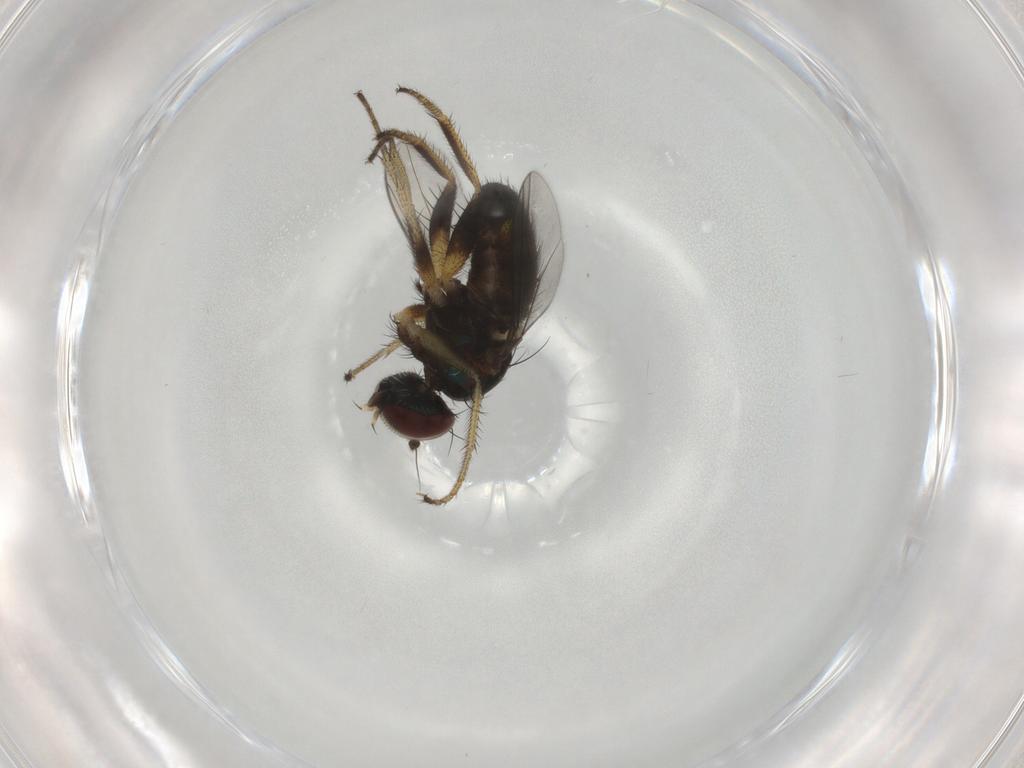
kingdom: Animalia
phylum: Arthropoda
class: Insecta
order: Diptera
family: Dolichopodidae
